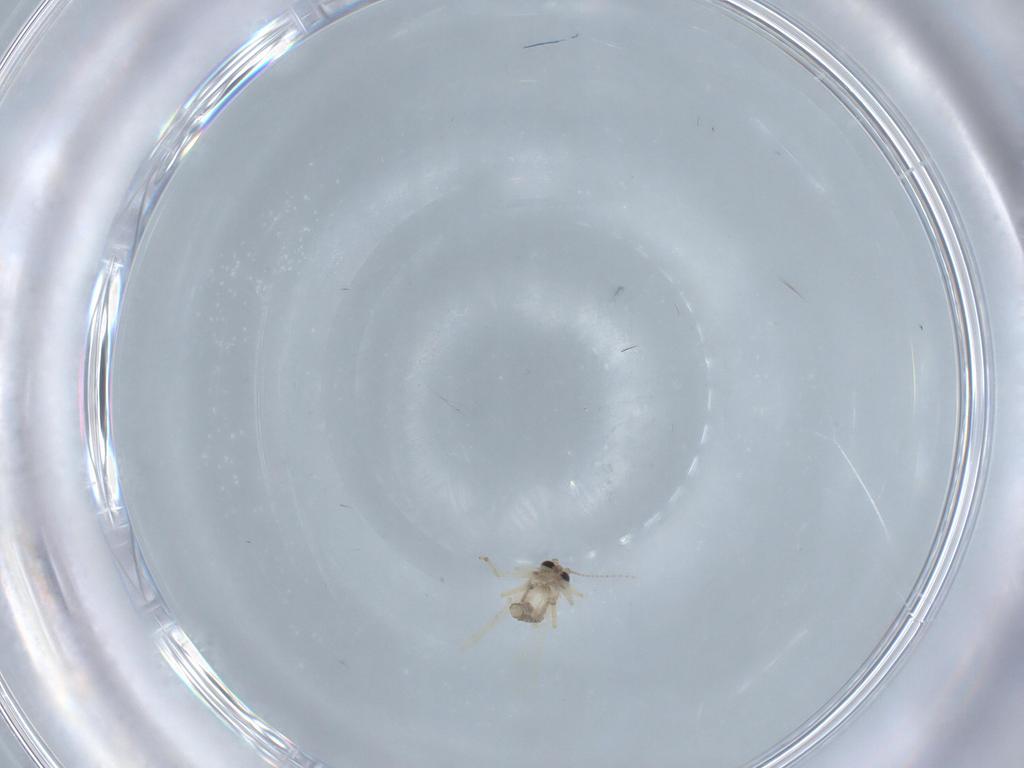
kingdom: Animalia
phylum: Arthropoda
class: Insecta
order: Diptera
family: Ceratopogonidae
